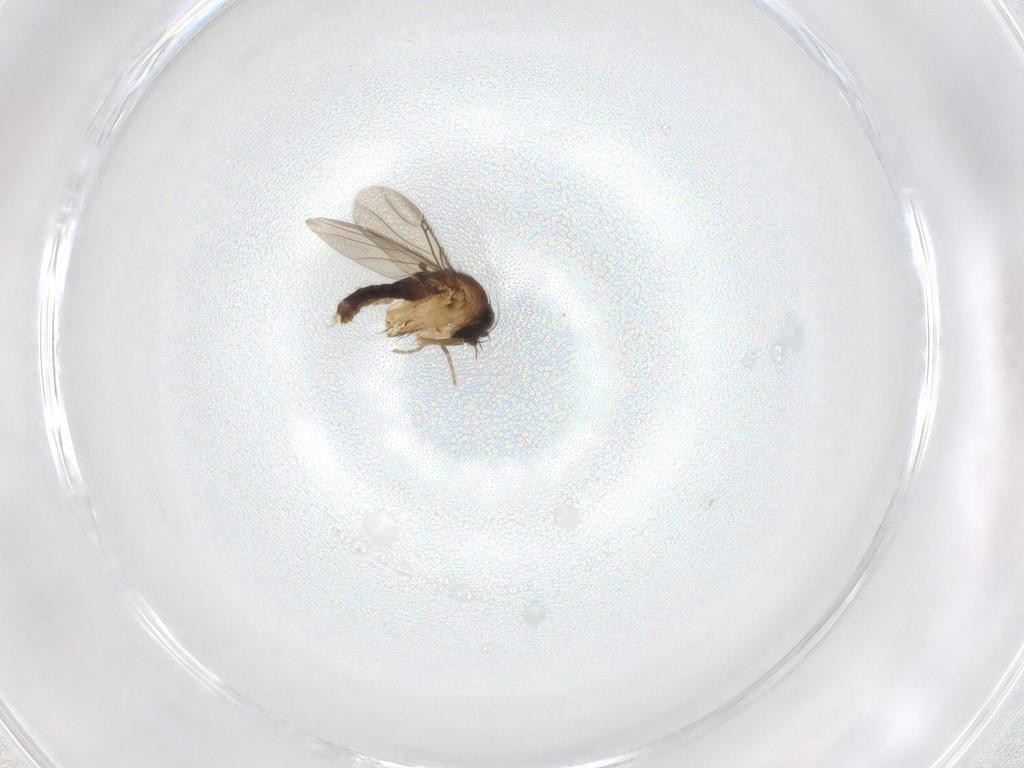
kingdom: Animalia
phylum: Arthropoda
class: Insecta
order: Diptera
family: Phoridae
